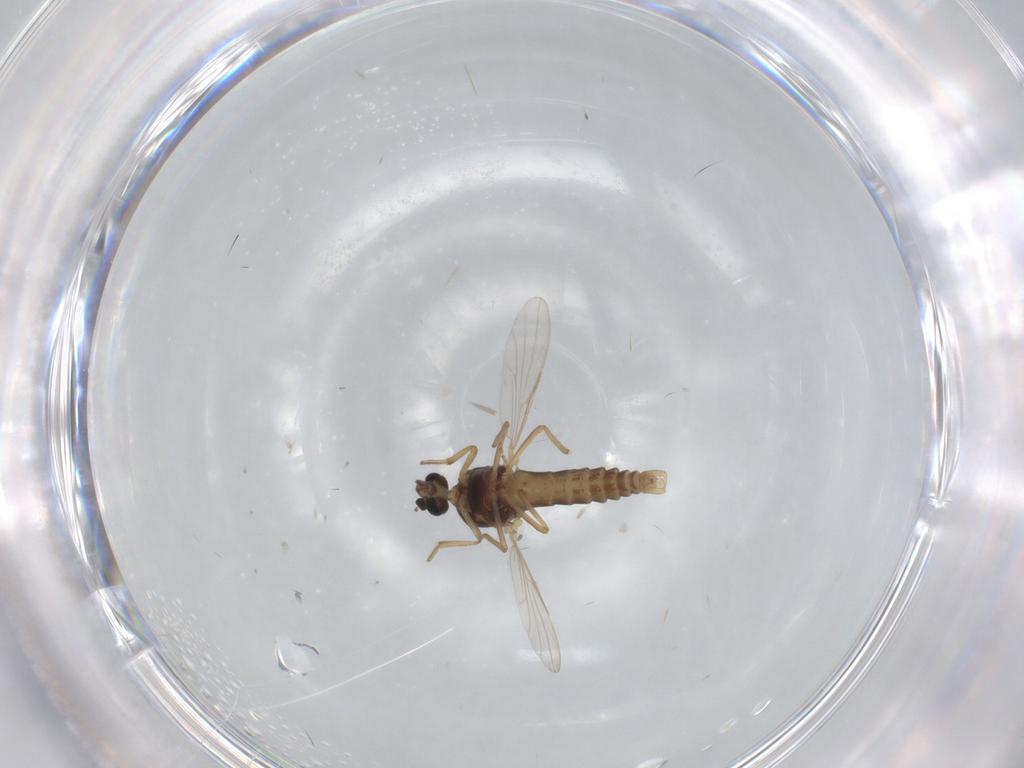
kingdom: Animalia
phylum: Arthropoda
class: Insecta
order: Diptera
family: Ceratopogonidae
